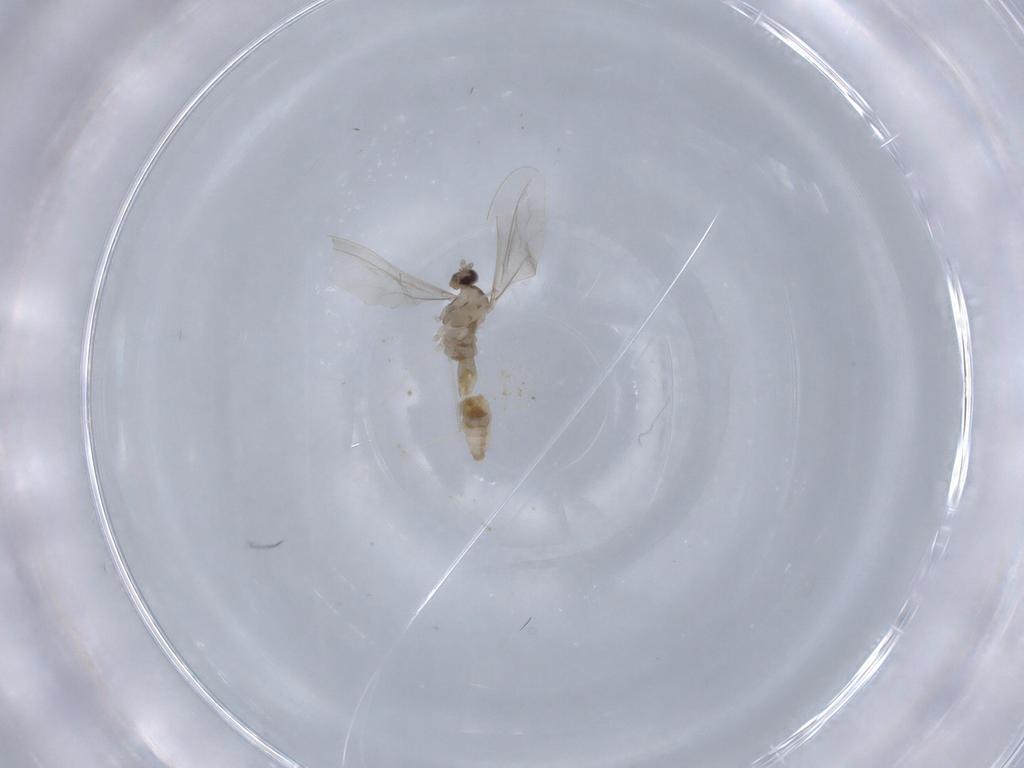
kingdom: Animalia
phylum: Arthropoda
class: Insecta
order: Diptera
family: Cecidomyiidae
